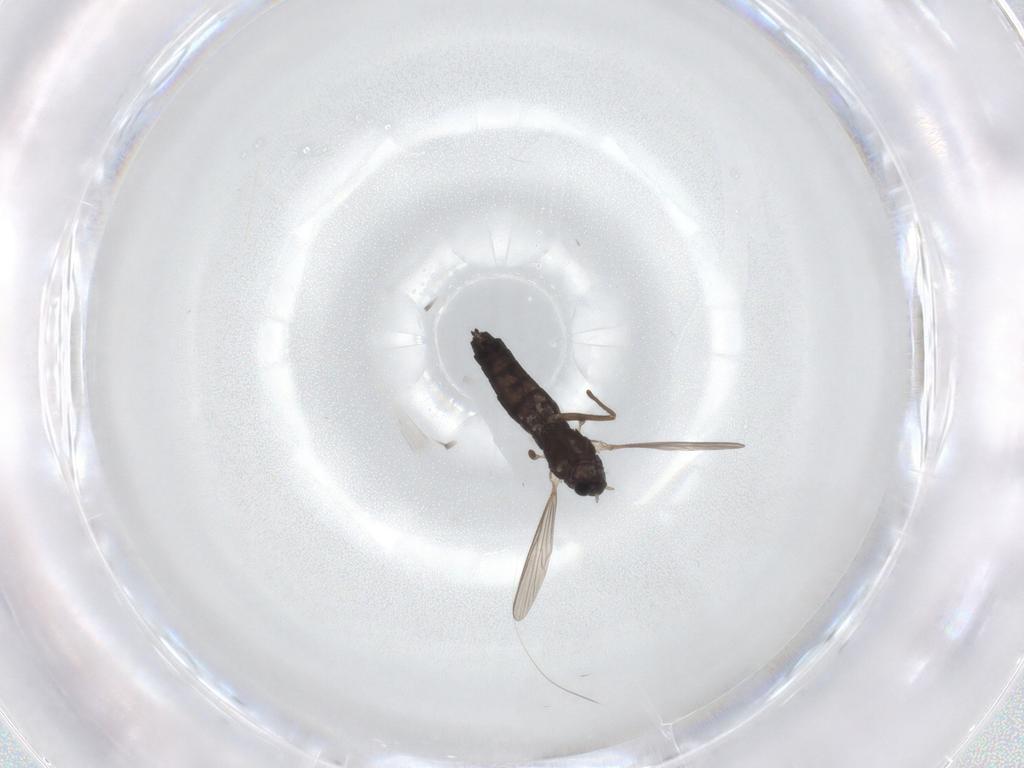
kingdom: Animalia
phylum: Arthropoda
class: Insecta
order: Diptera
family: Chironomidae
